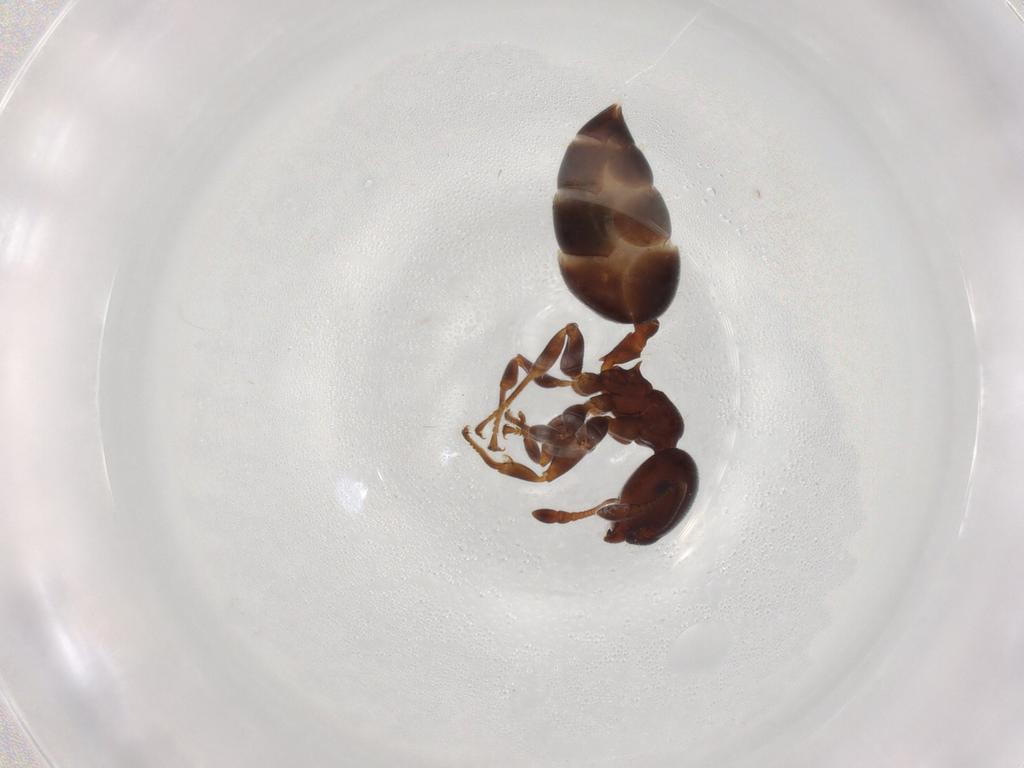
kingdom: Animalia
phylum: Arthropoda
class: Insecta
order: Hymenoptera
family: Formicidae
